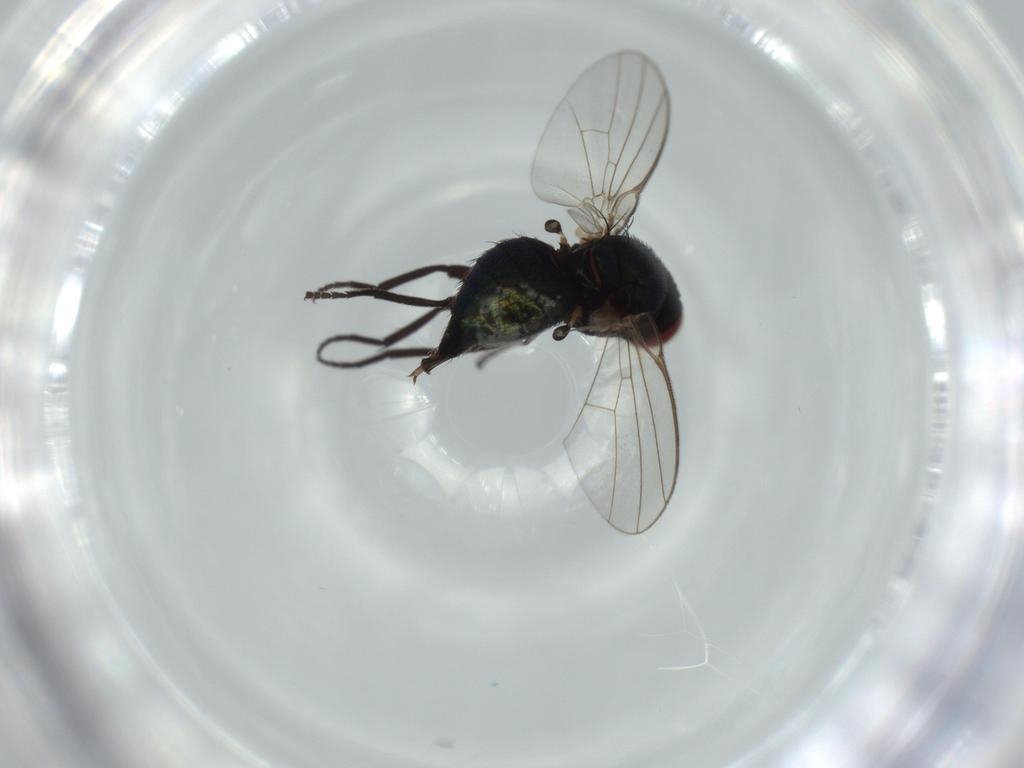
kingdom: Animalia
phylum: Arthropoda
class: Insecta
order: Diptera
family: Agromyzidae
